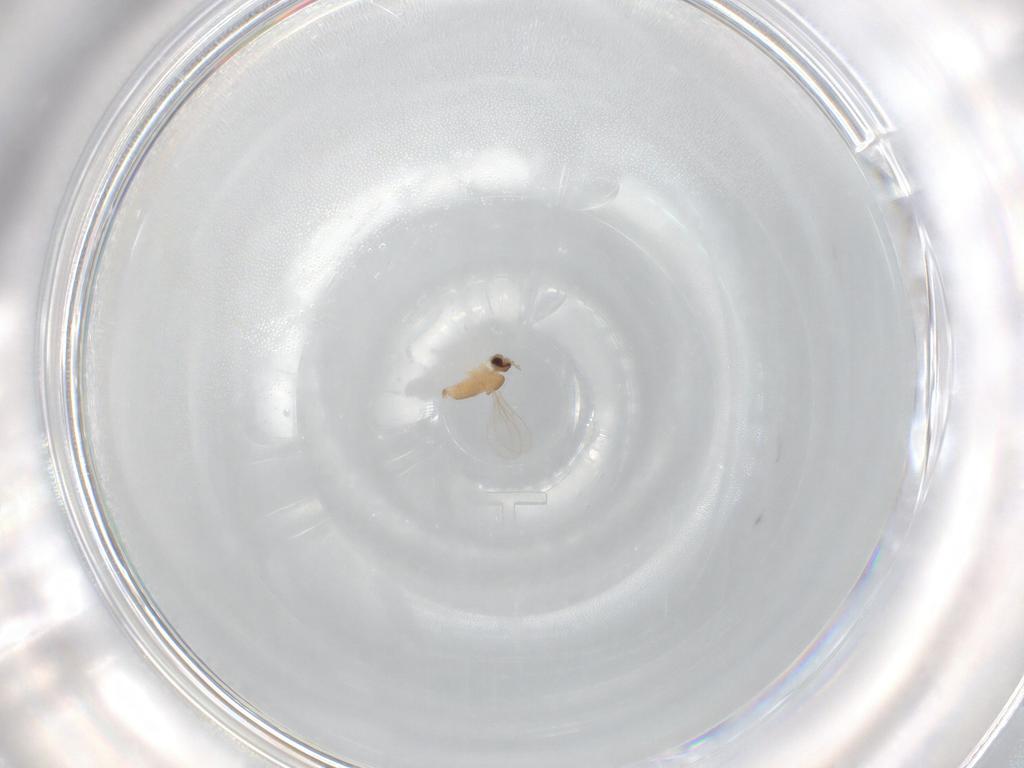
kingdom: Animalia
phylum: Arthropoda
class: Insecta
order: Diptera
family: Cecidomyiidae
